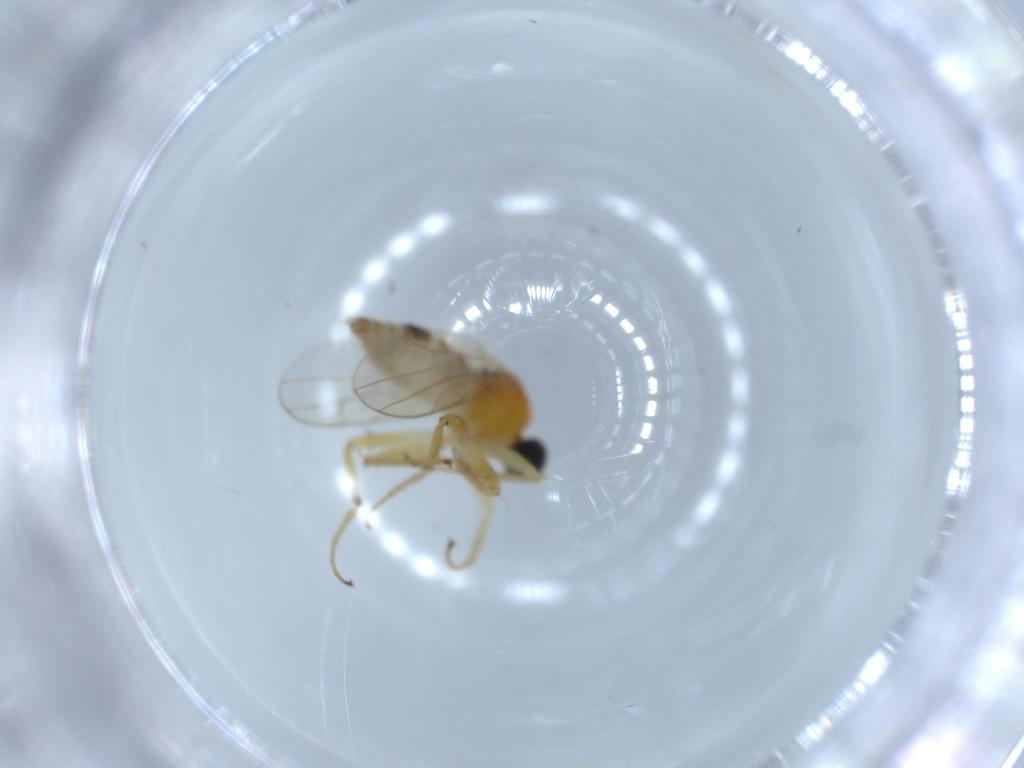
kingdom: Animalia
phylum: Arthropoda
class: Insecta
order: Diptera
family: Hybotidae
